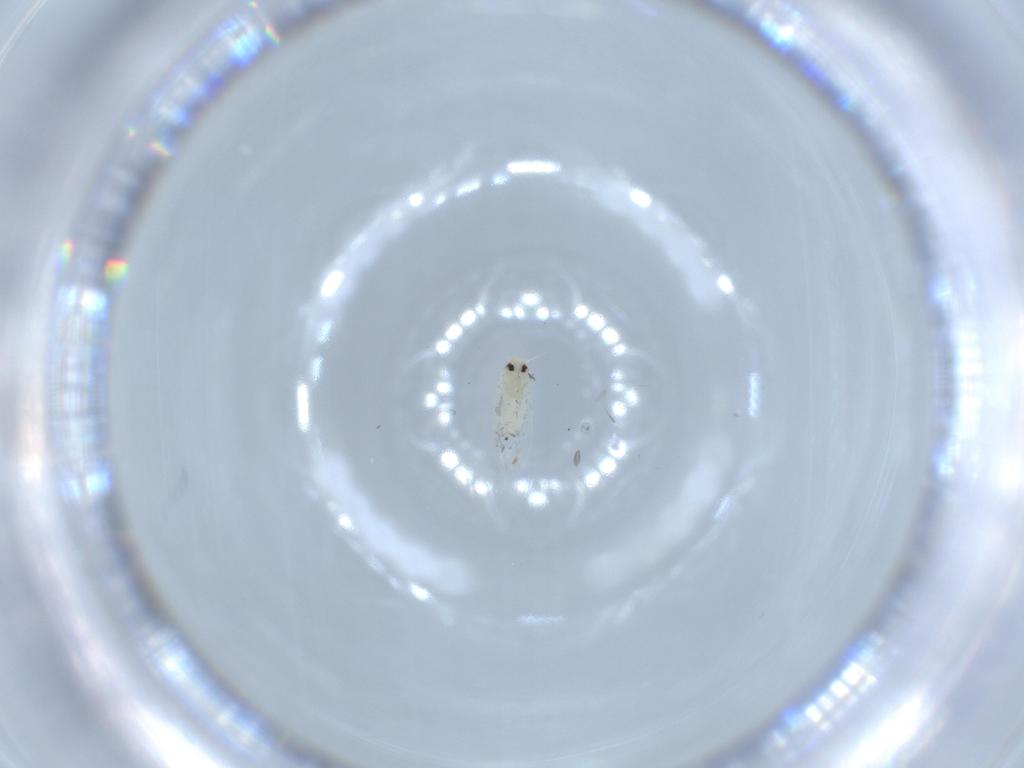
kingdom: Animalia
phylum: Arthropoda
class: Insecta
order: Hemiptera
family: Aleyrodidae
